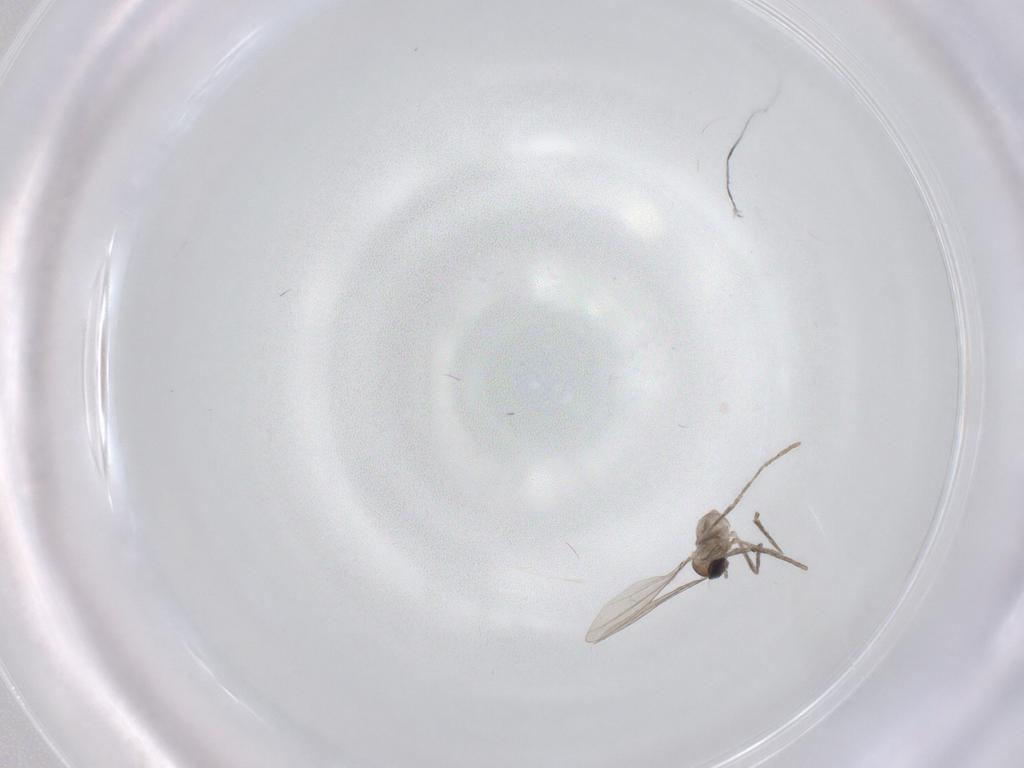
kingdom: Animalia
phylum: Arthropoda
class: Insecta
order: Diptera
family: Cecidomyiidae
